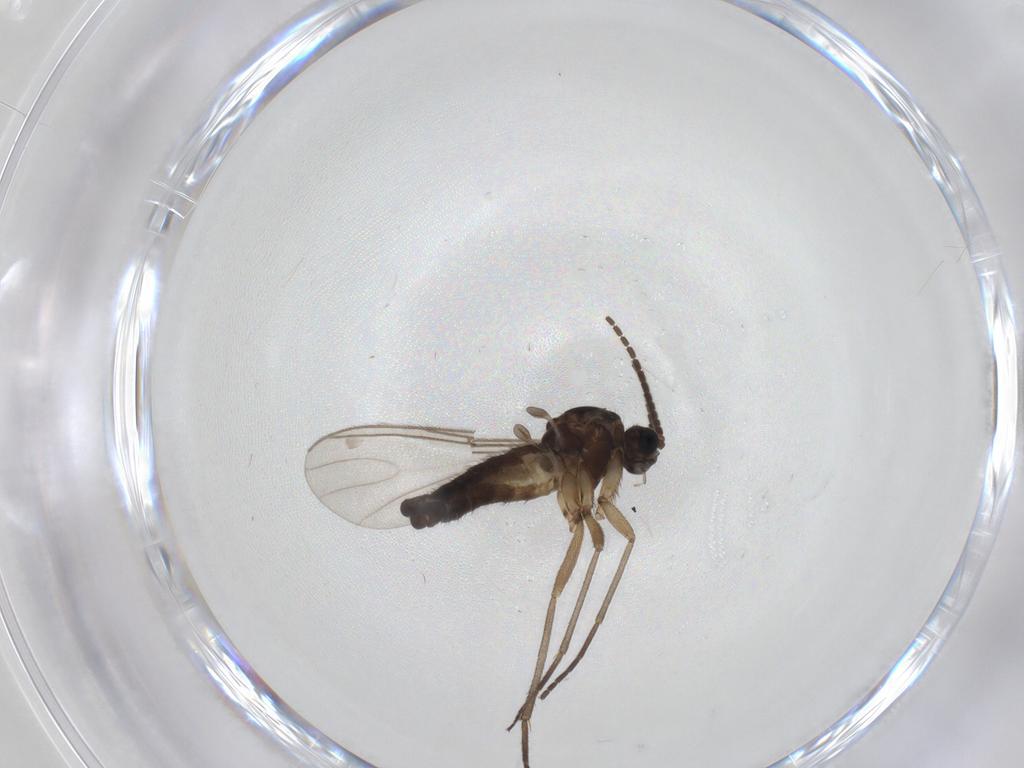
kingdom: Animalia
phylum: Arthropoda
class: Insecta
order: Diptera
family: Sciaridae
